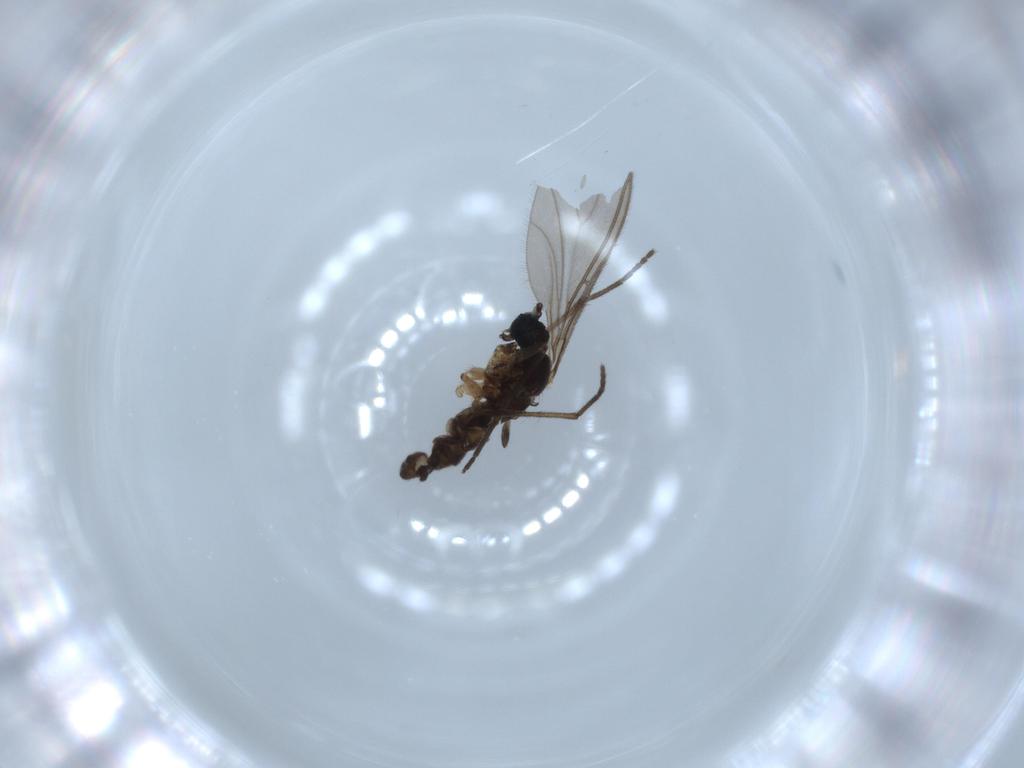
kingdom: Animalia
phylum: Arthropoda
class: Insecta
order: Diptera
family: Sciaridae
